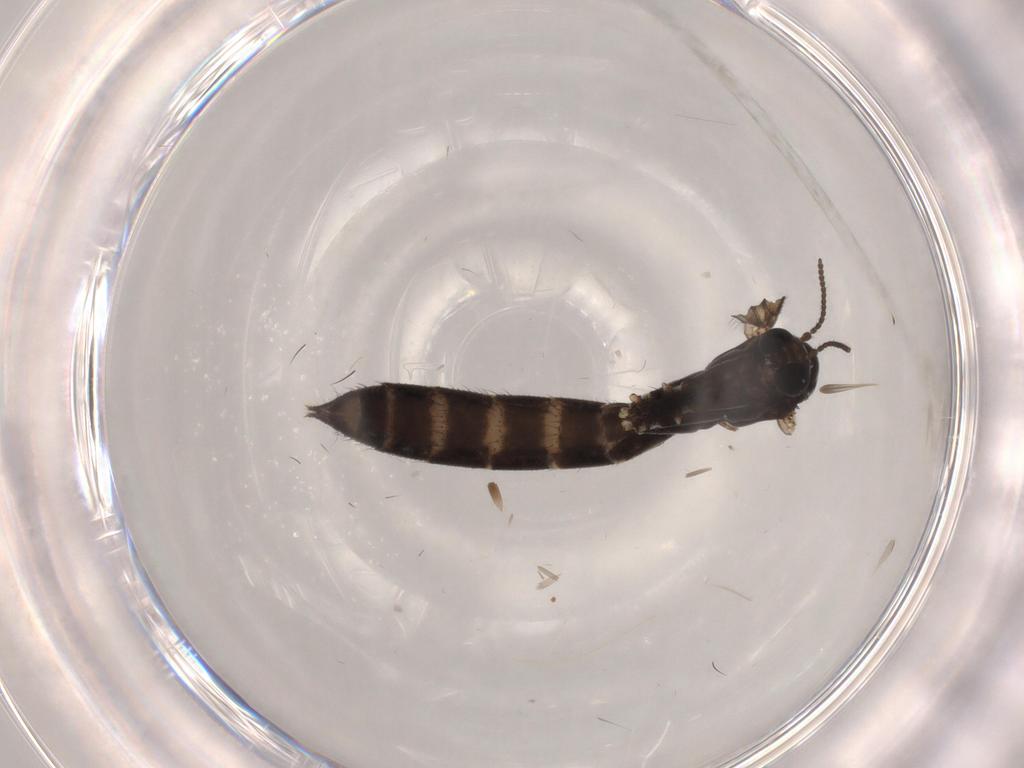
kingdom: Animalia
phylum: Arthropoda
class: Insecta
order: Diptera
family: Ditomyiidae
